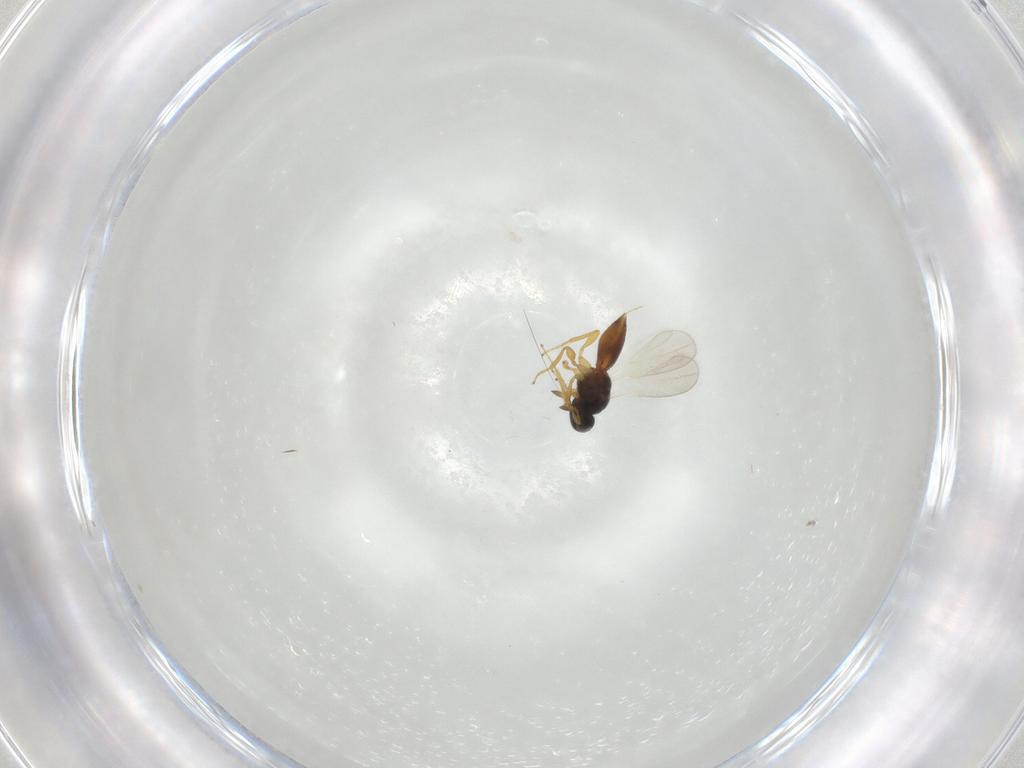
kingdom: Animalia
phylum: Arthropoda
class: Insecta
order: Hymenoptera
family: Platygastridae
